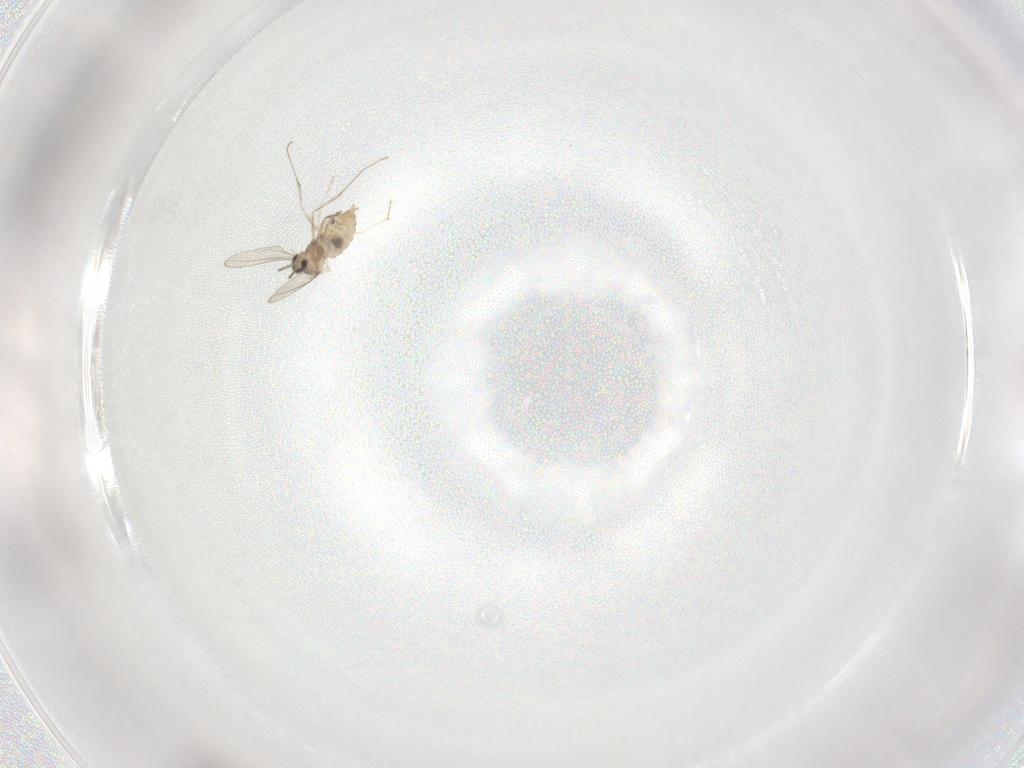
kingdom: Animalia
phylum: Arthropoda
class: Insecta
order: Diptera
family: Cecidomyiidae
